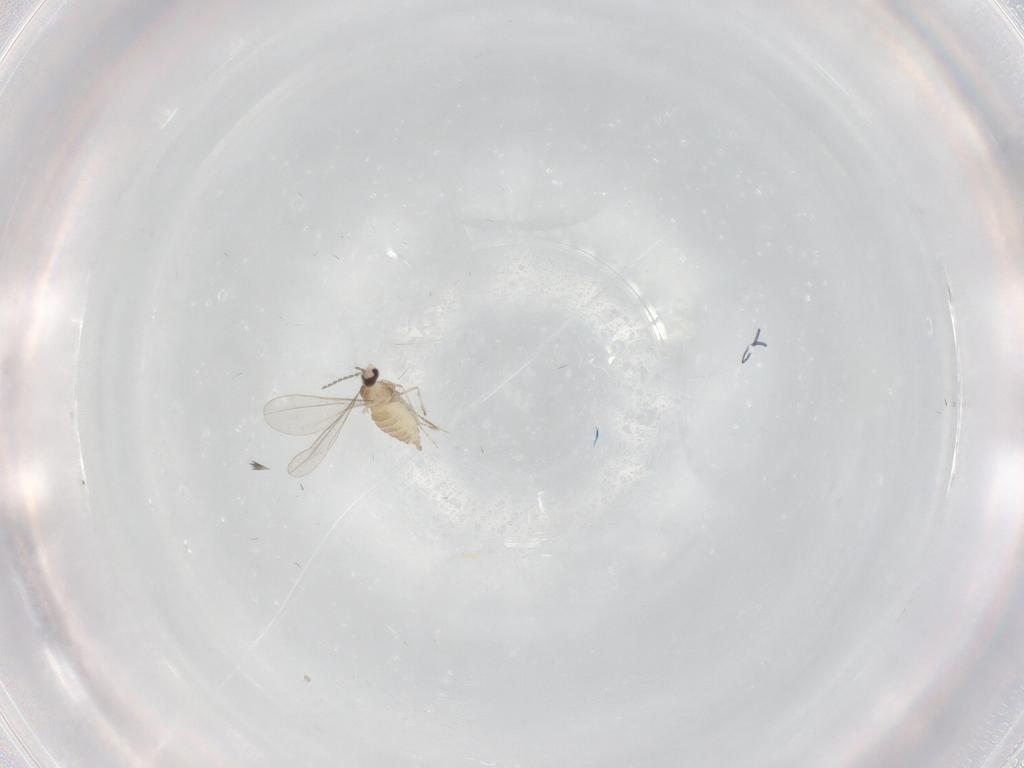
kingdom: Animalia
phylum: Arthropoda
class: Insecta
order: Diptera
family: Cecidomyiidae
